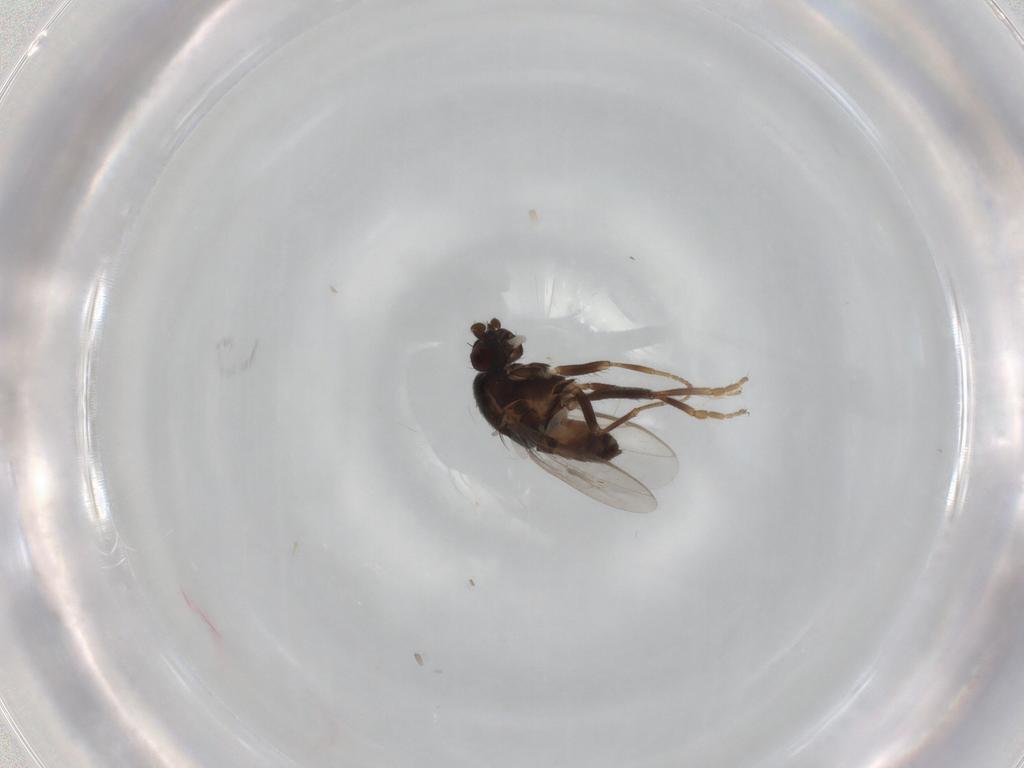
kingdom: Animalia
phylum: Arthropoda
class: Insecta
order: Diptera
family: Sphaeroceridae
